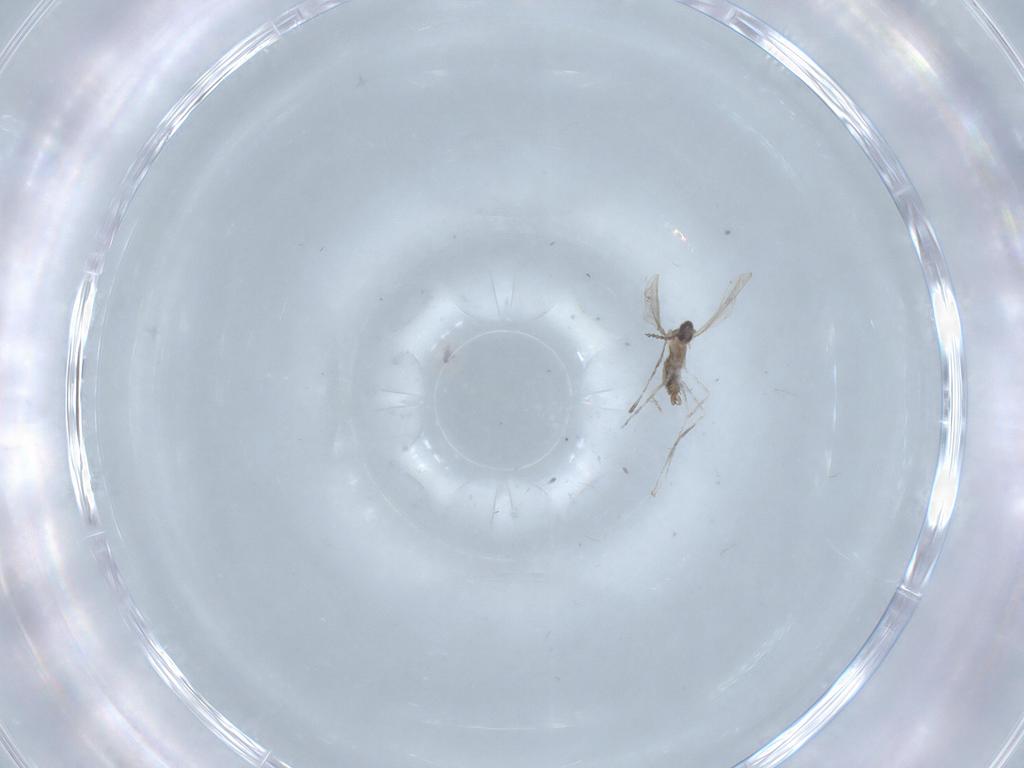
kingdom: Animalia
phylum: Arthropoda
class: Insecta
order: Diptera
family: Cecidomyiidae
